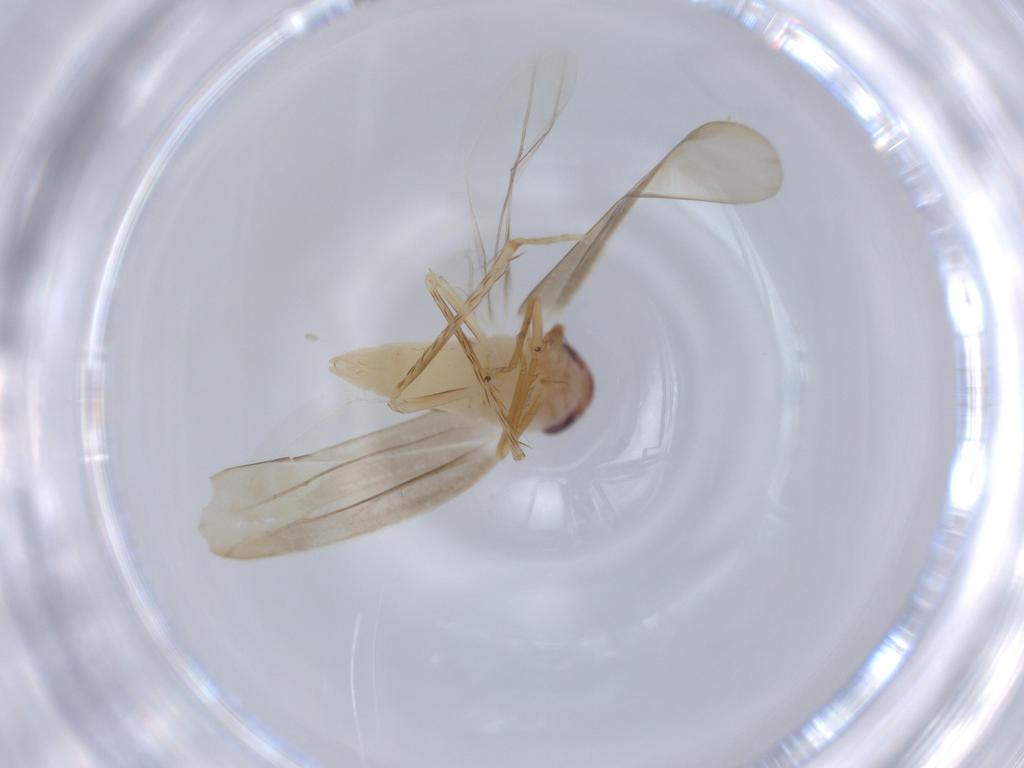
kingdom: Animalia
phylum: Arthropoda
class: Insecta
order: Hemiptera
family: Cicadellidae
